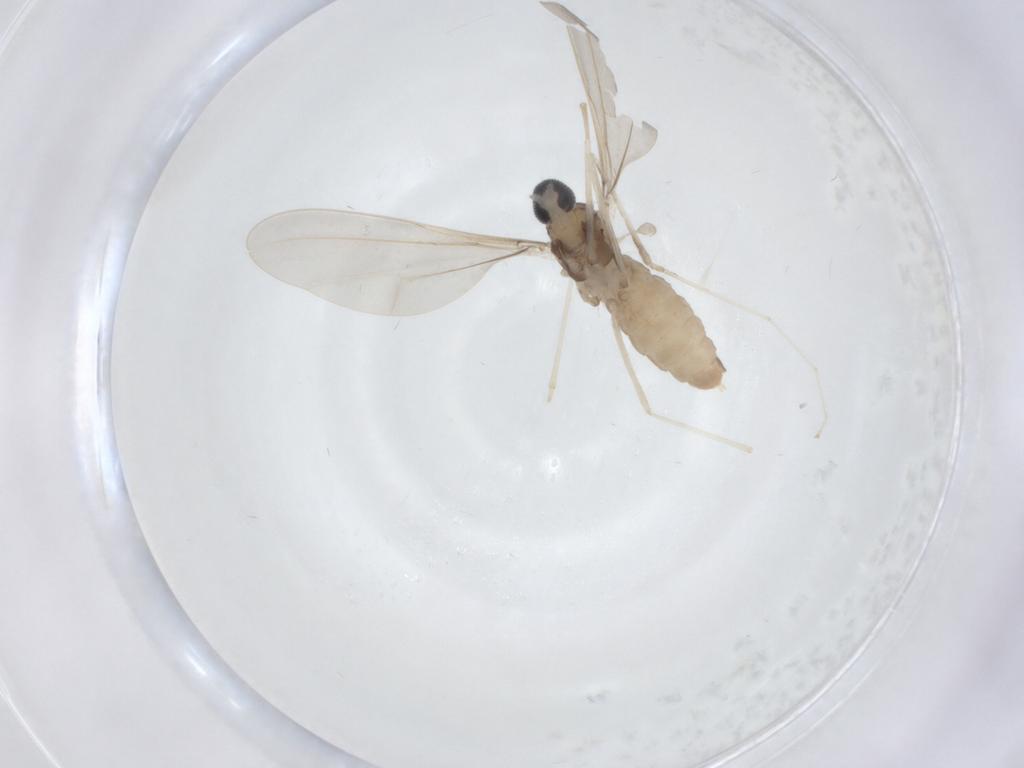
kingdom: Animalia
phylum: Arthropoda
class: Insecta
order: Diptera
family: Cecidomyiidae
